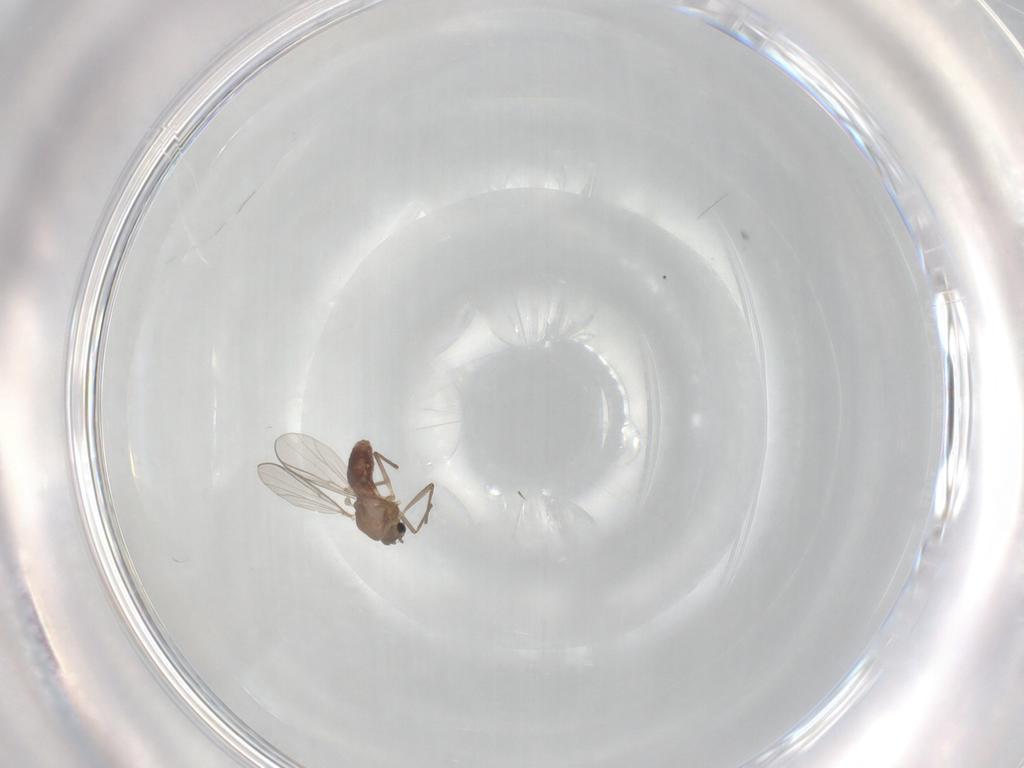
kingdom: Animalia
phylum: Arthropoda
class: Insecta
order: Diptera
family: Chironomidae
